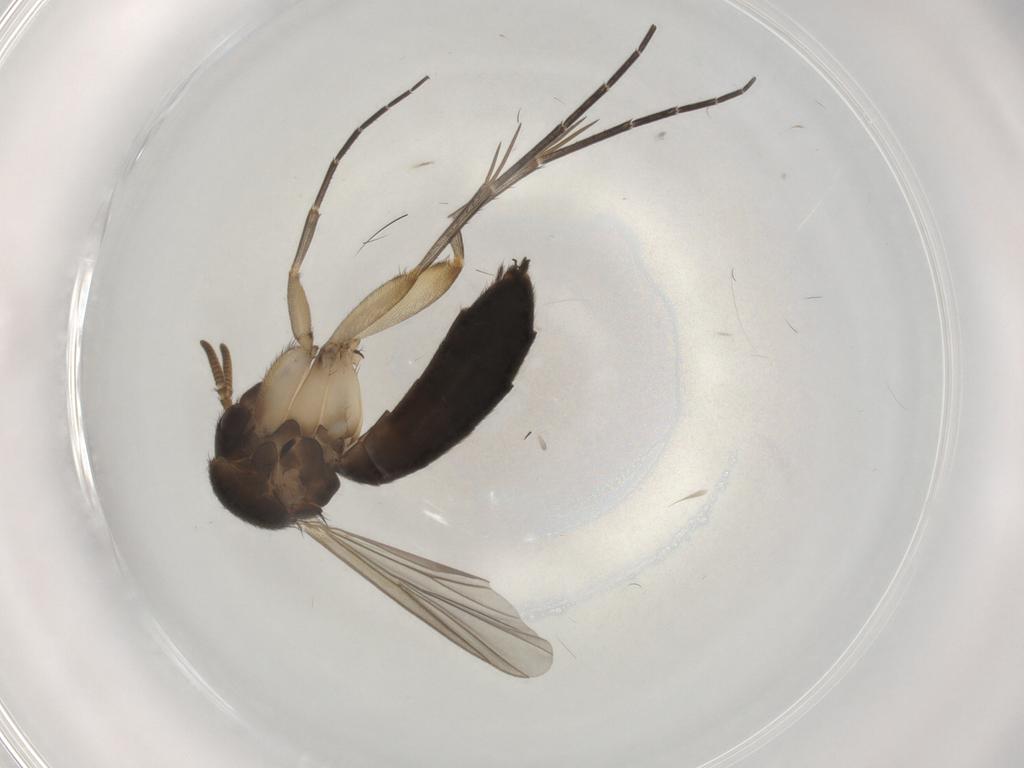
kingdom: Animalia
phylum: Arthropoda
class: Insecta
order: Diptera
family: Mycetophilidae
